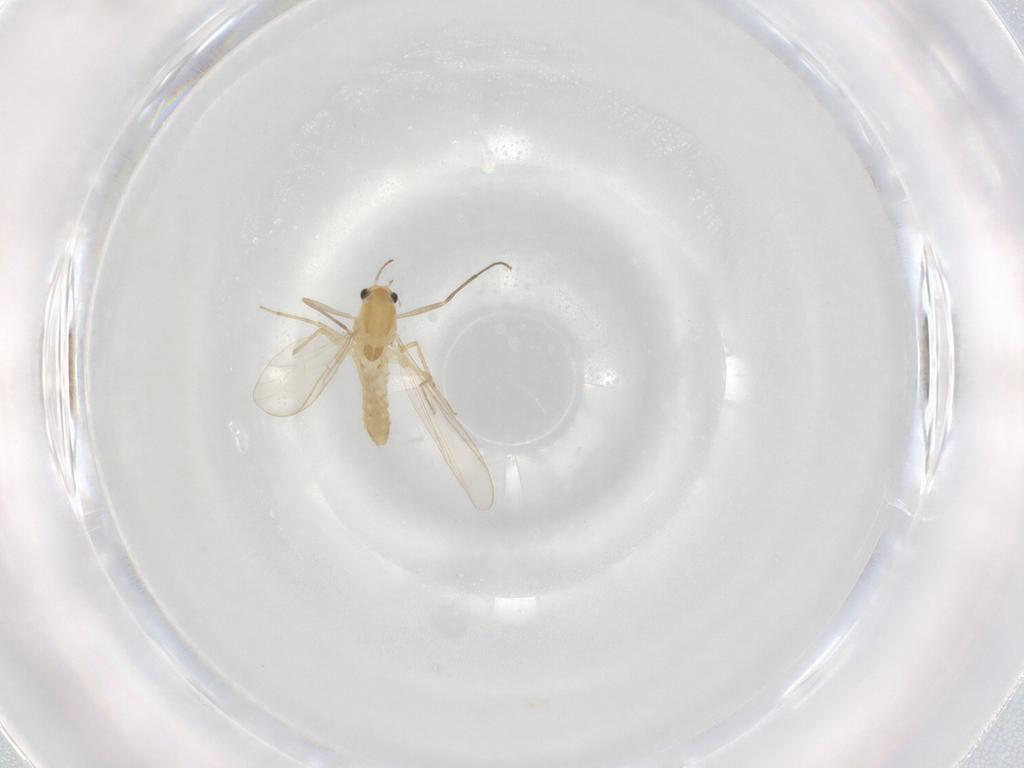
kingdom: Animalia
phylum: Arthropoda
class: Insecta
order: Diptera
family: Chironomidae
